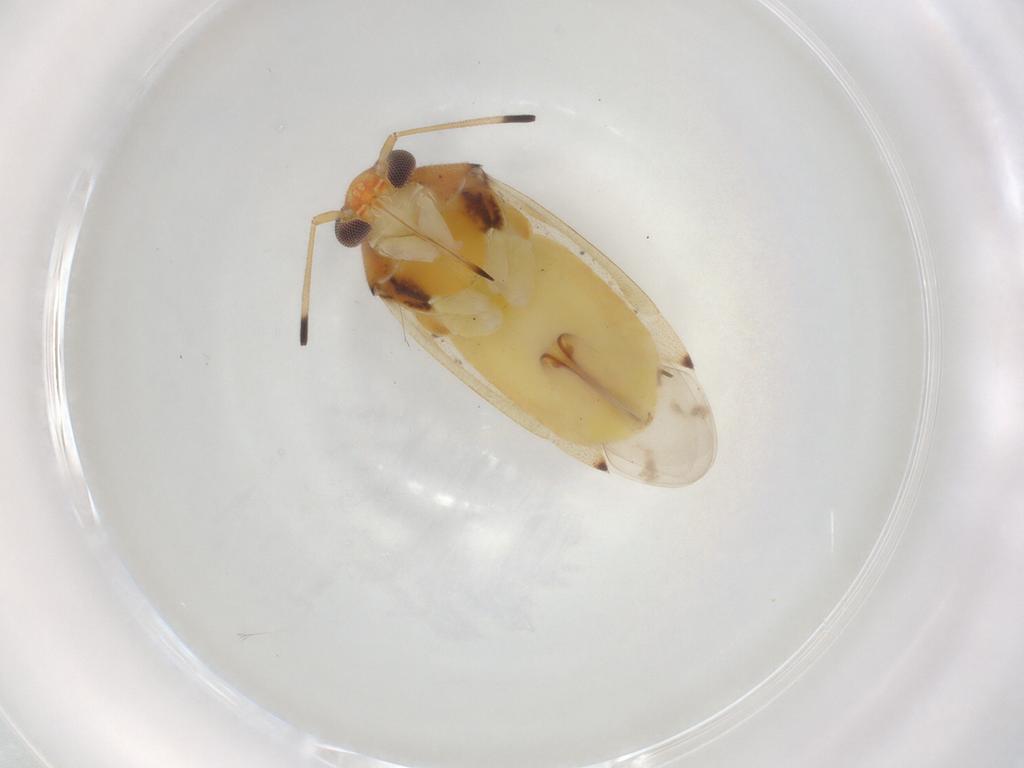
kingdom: Animalia
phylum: Arthropoda
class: Insecta
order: Hemiptera
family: Miridae
